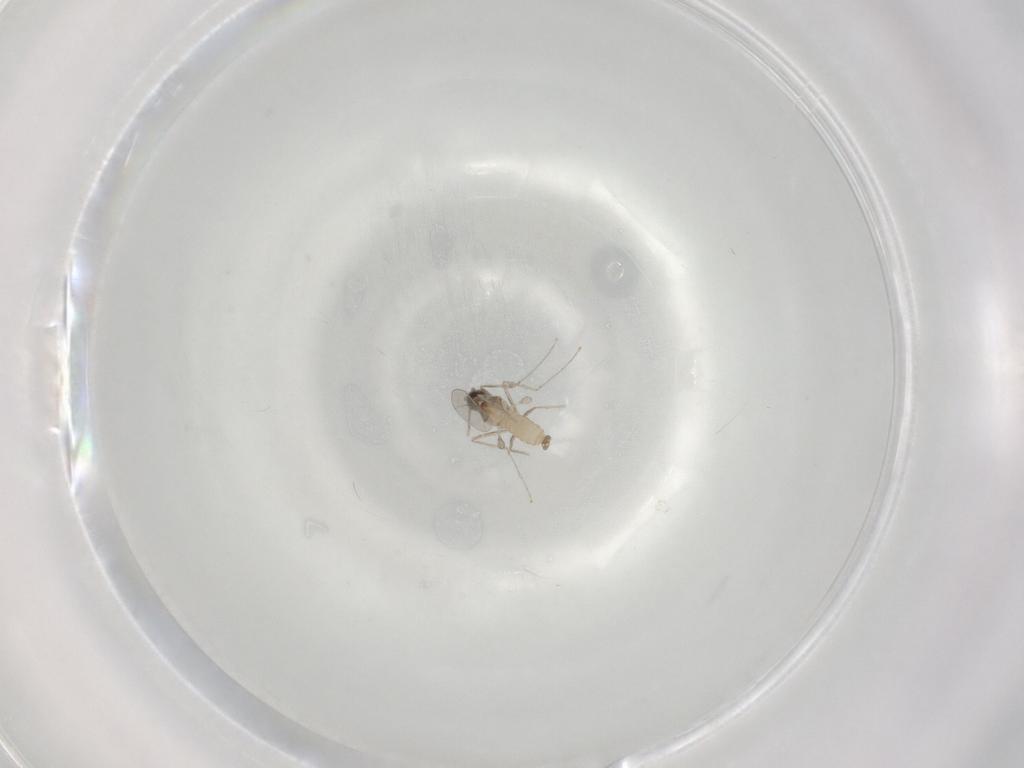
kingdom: Animalia
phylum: Arthropoda
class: Insecta
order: Diptera
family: Cecidomyiidae
